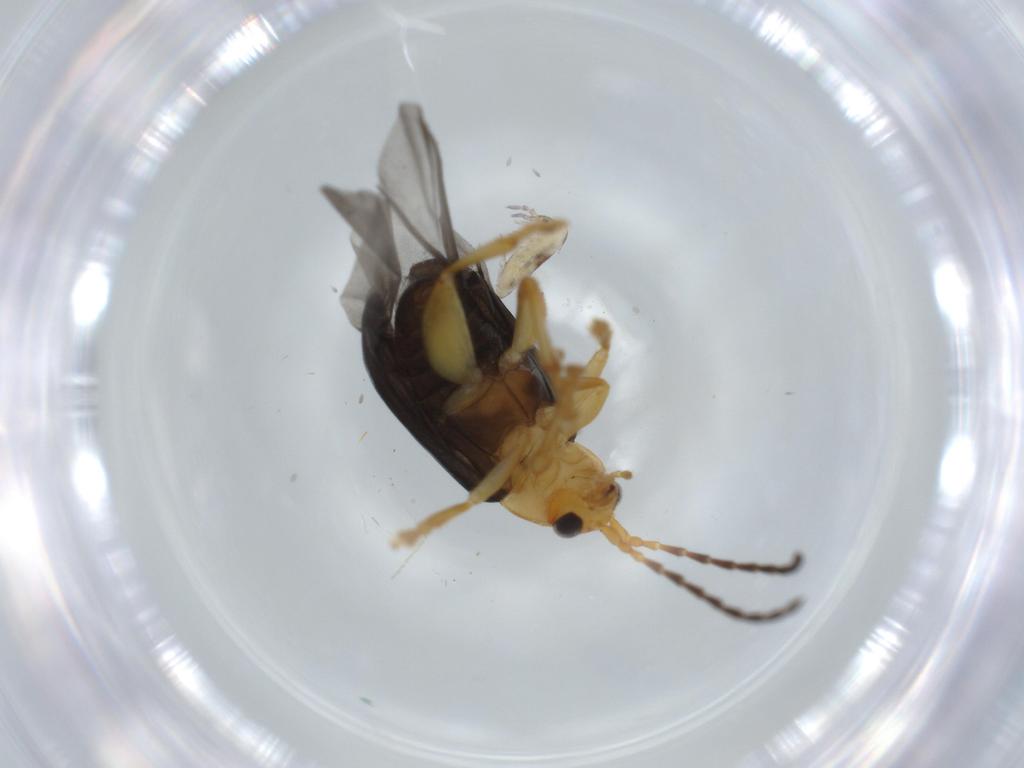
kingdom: Animalia
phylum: Arthropoda
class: Insecta
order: Coleoptera
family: Chrysomelidae
